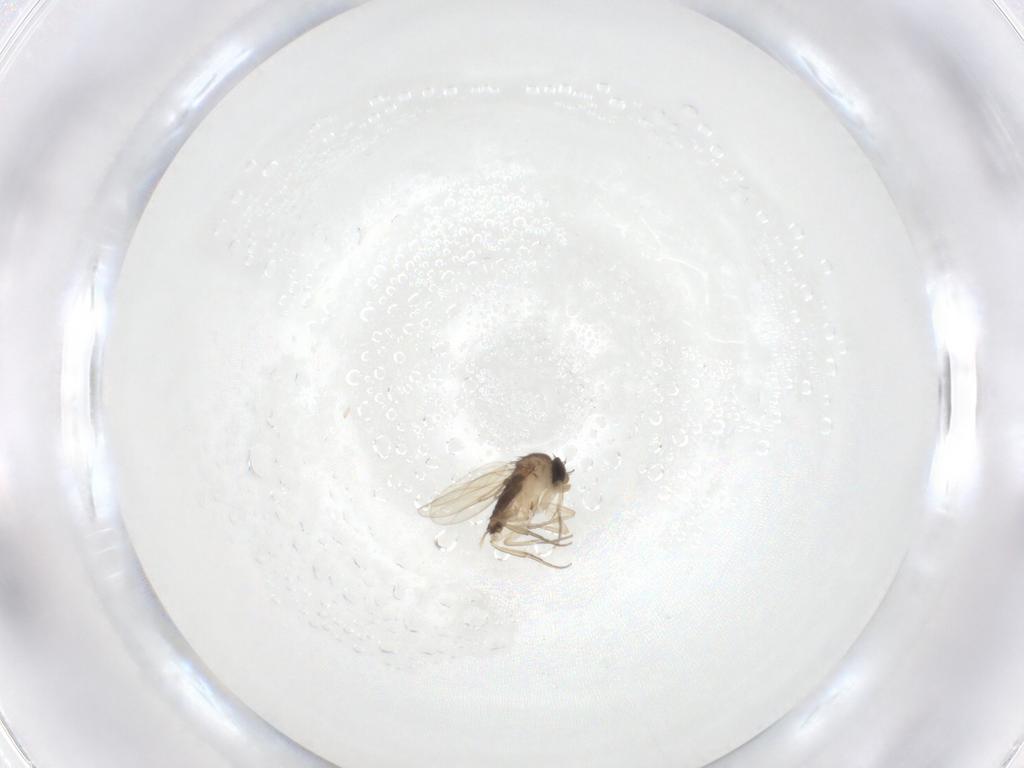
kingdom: Animalia
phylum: Arthropoda
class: Insecta
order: Diptera
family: Phoridae
